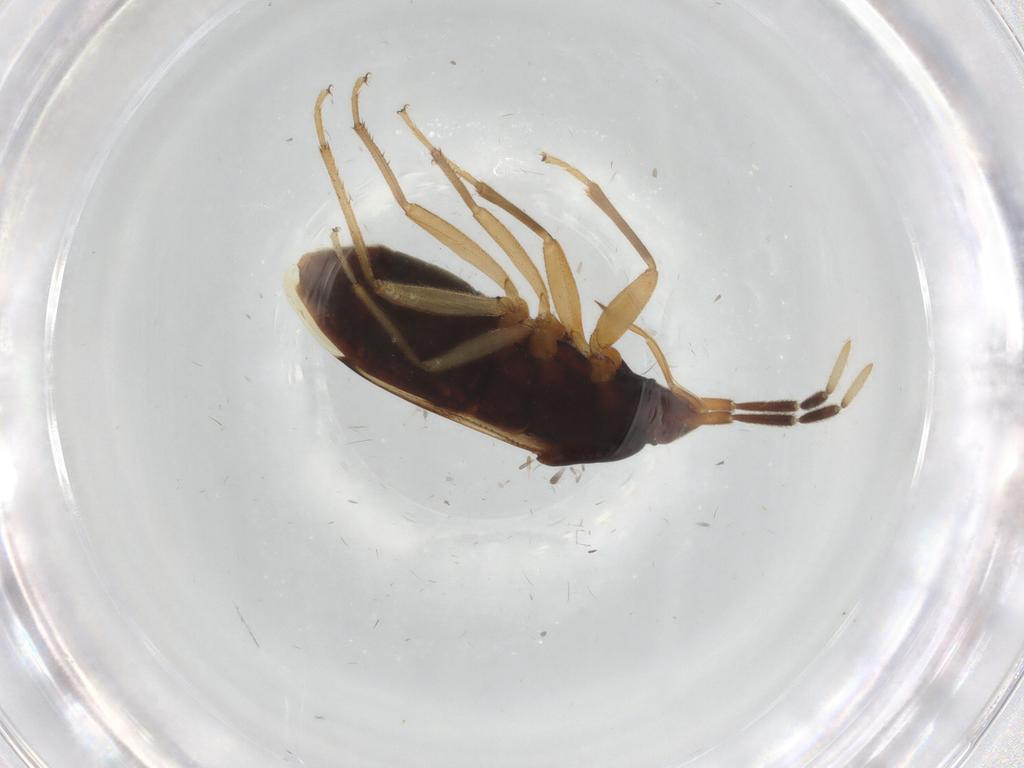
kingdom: Animalia
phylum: Arthropoda
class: Insecta
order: Hemiptera
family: Rhyparochromidae
